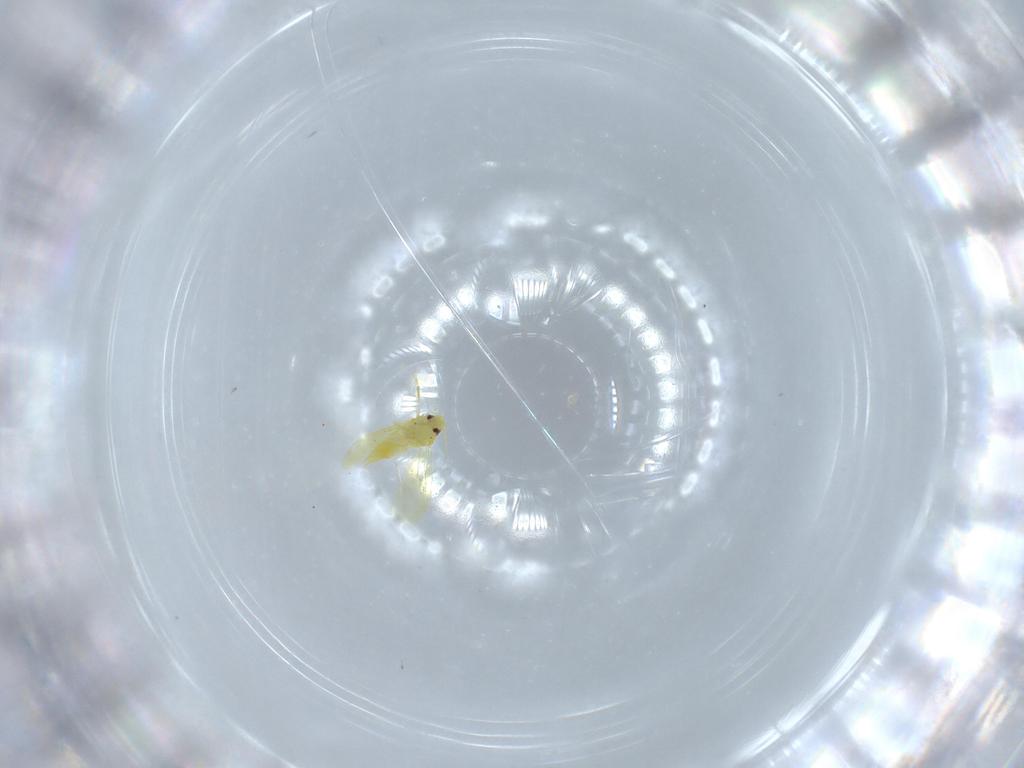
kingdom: Animalia
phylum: Arthropoda
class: Insecta
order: Hemiptera
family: Aleyrodidae
